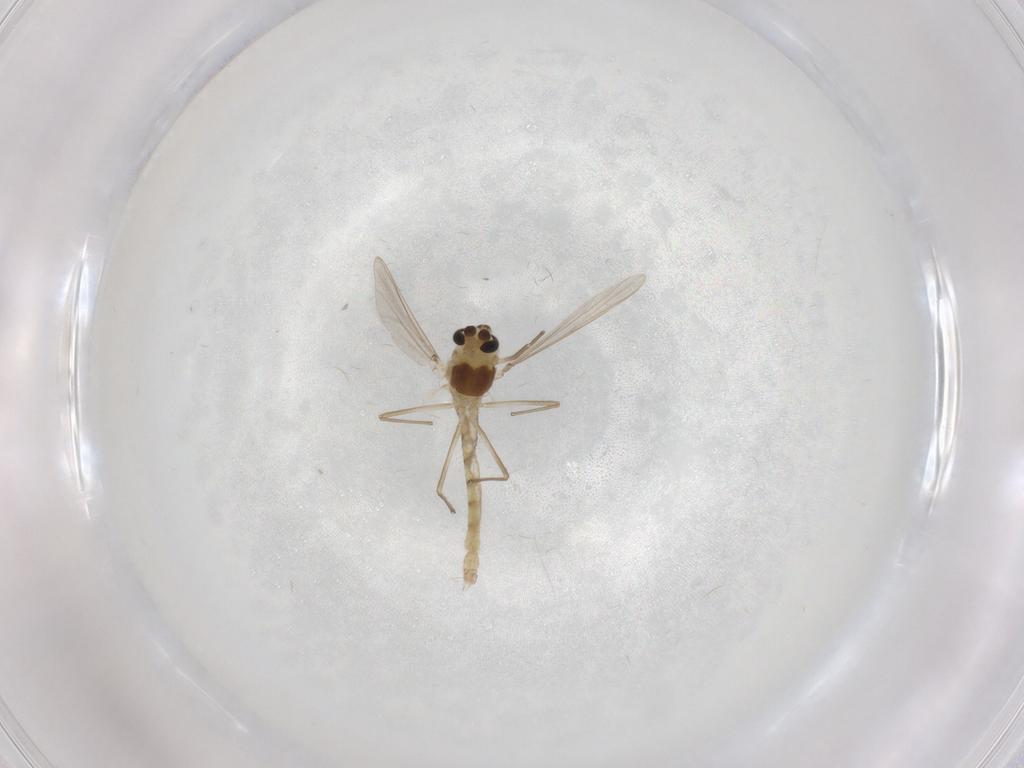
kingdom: Animalia
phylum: Arthropoda
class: Insecta
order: Diptera
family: Chironomidae
